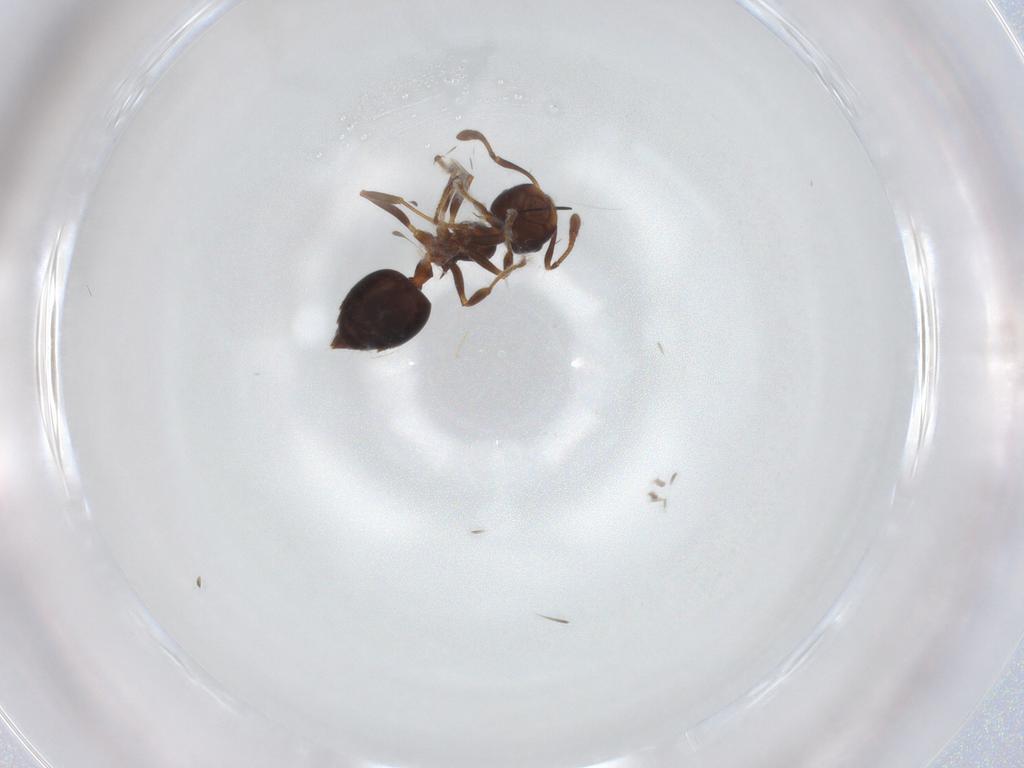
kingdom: Animalia
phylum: Arthropoda
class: Insecta
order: Hymenoptera
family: Formicidae
